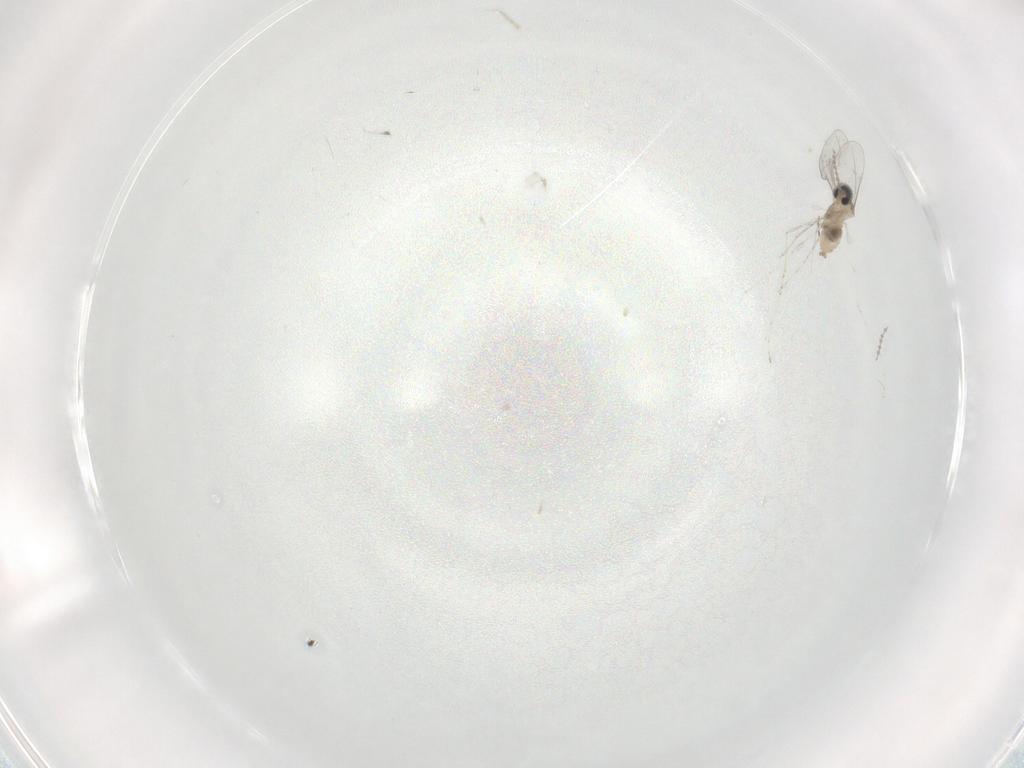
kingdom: Animalia
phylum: Arthropoda
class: Insecta
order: Diptera
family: Chironomidae
